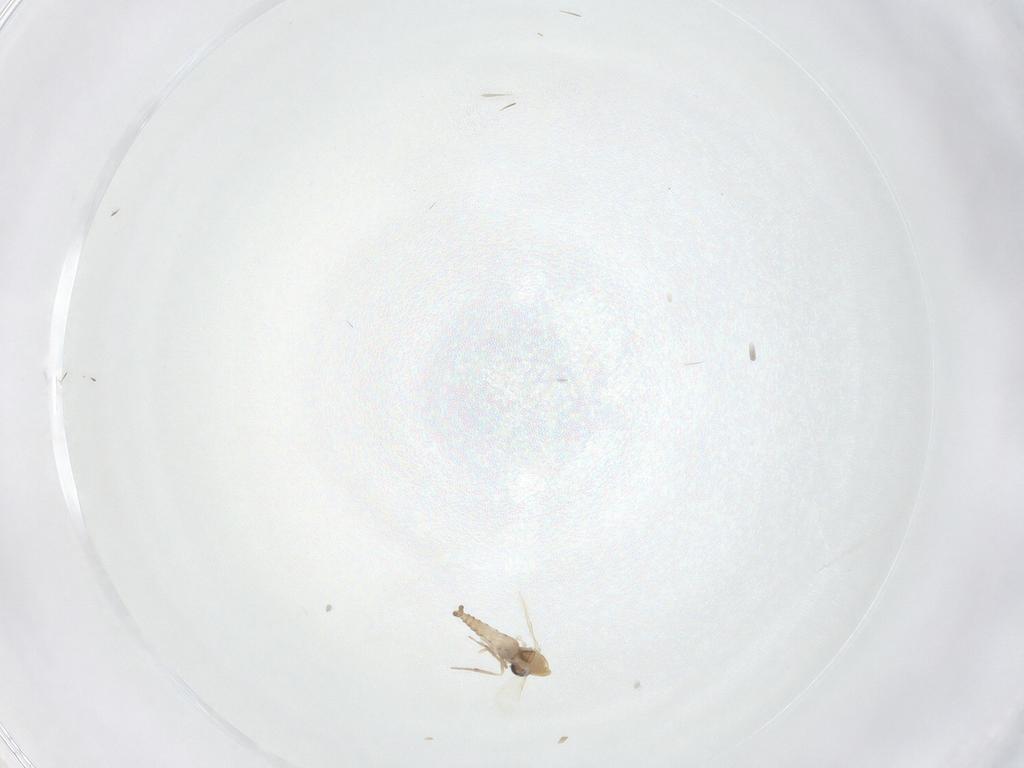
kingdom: Animalia
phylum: Arthropoda
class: Insecta
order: Diptera
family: Ceratopogonidae
